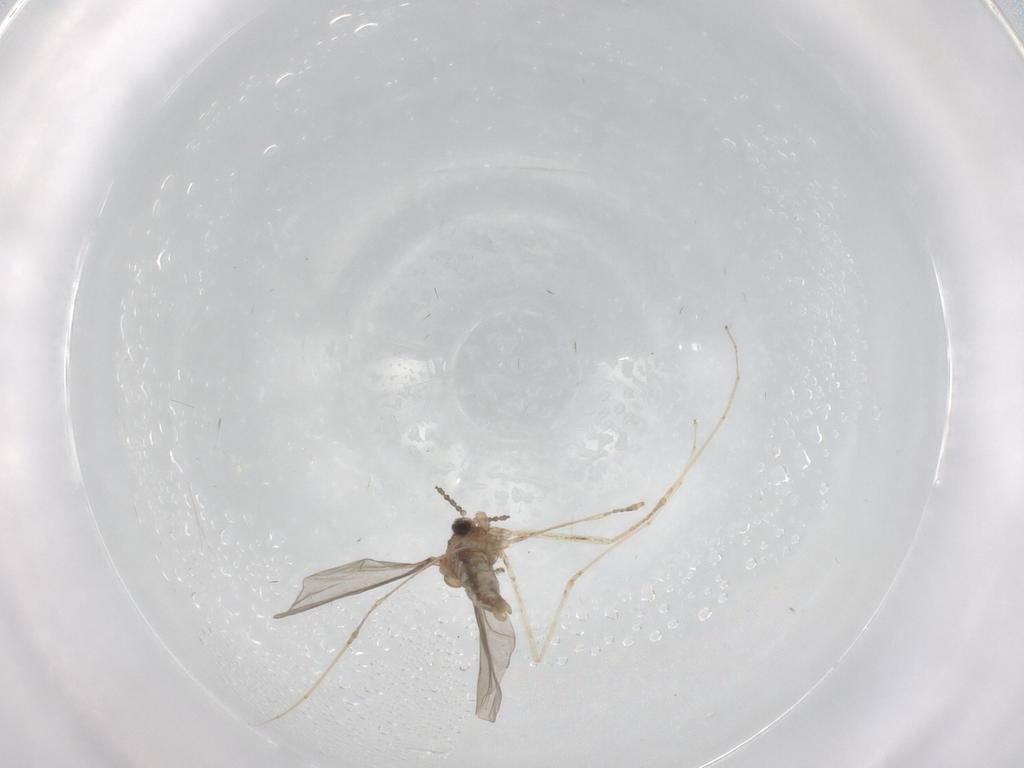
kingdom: Animalia
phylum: Arthropoda
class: Insecta
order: Diptera
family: Cecidomyiidae
